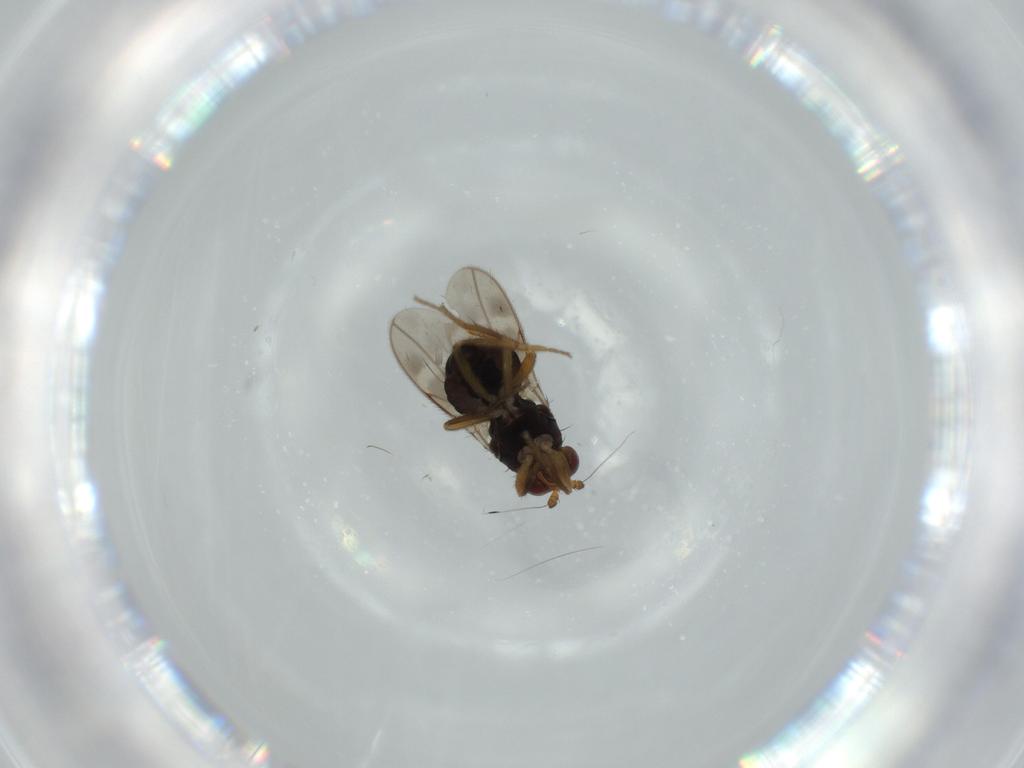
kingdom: Animalia
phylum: Arthropoda
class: Insecta
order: Diptera
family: Sphaeroceridae
